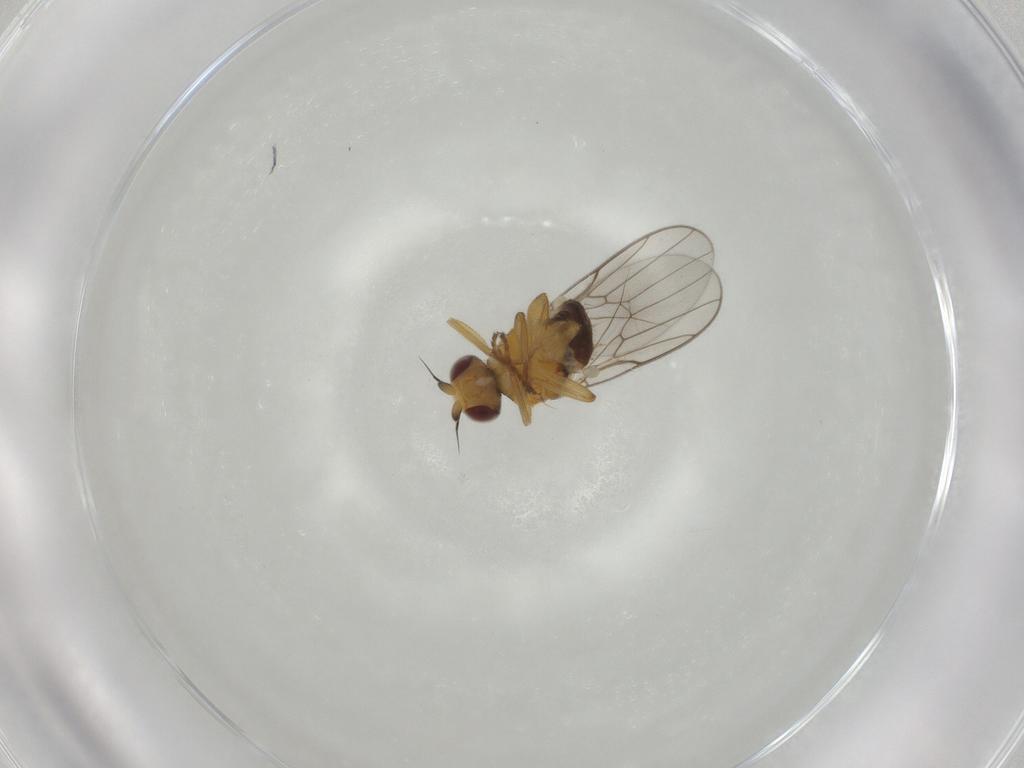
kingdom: Animalia
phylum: Arthropoda
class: Insecta
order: Diptera
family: Chloropidae
